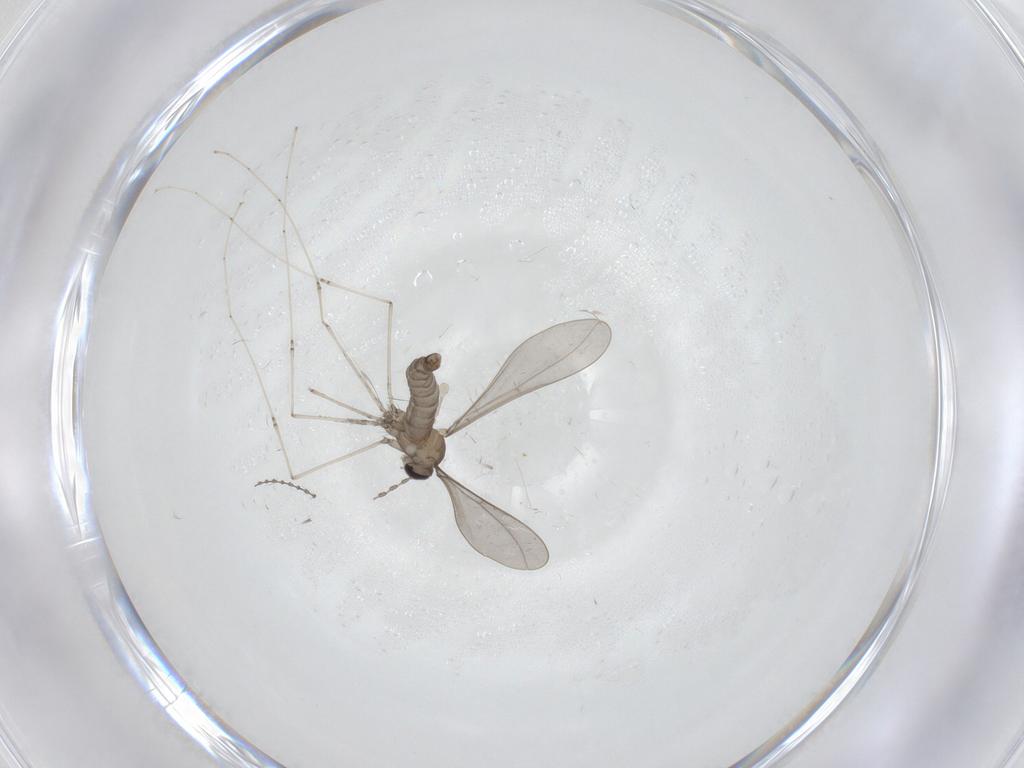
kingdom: Animalia
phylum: Arthropoda
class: Insecta
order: Diptera
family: Cecidomyiidae
